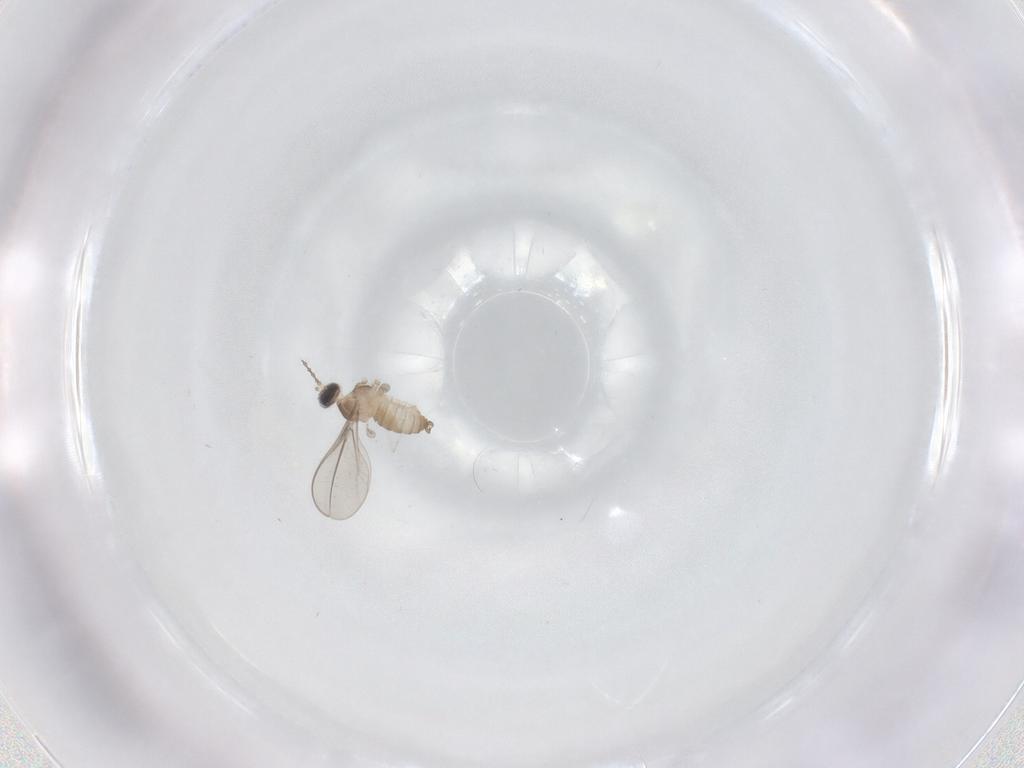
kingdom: Animalia
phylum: Arthropoda
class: Insecta
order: Diptera
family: Cecidomyiidae
